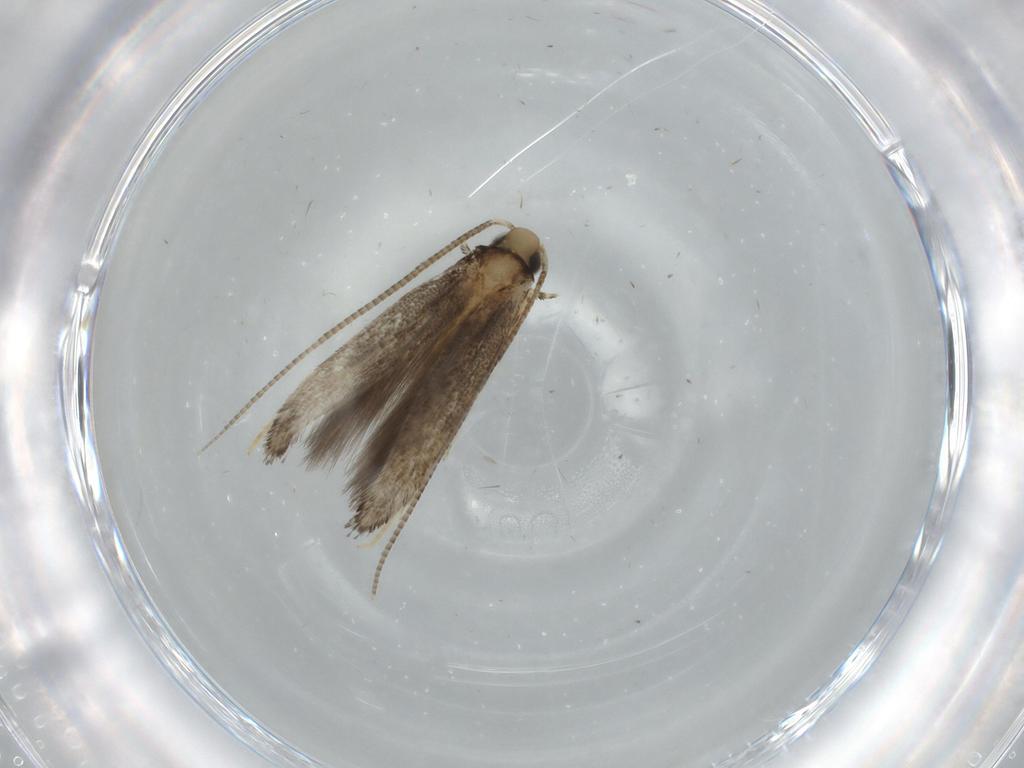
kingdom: Animalia
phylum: Arthropoda
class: Insecta
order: Lepidoptera
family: Gracillariidae
